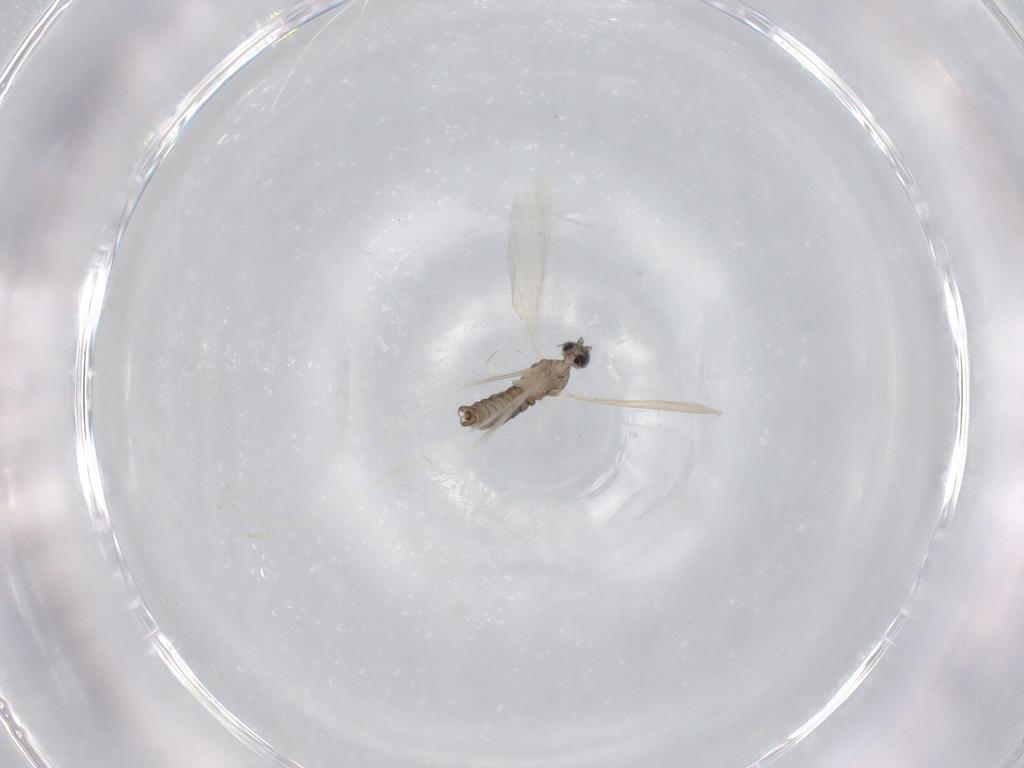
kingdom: Animalia
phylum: Arthropoda
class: Insecta
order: Diptera
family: Cecidomyiidae
